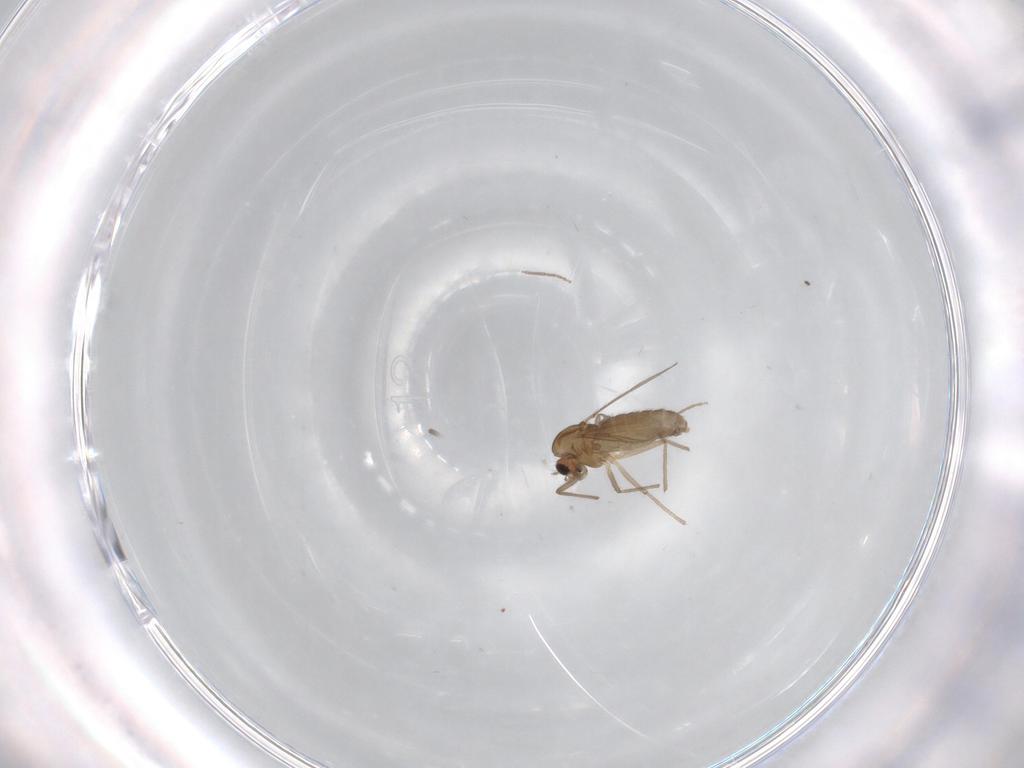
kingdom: Animalia
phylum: Arthropoda
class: Insecta
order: Diptera
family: Chironomidae
